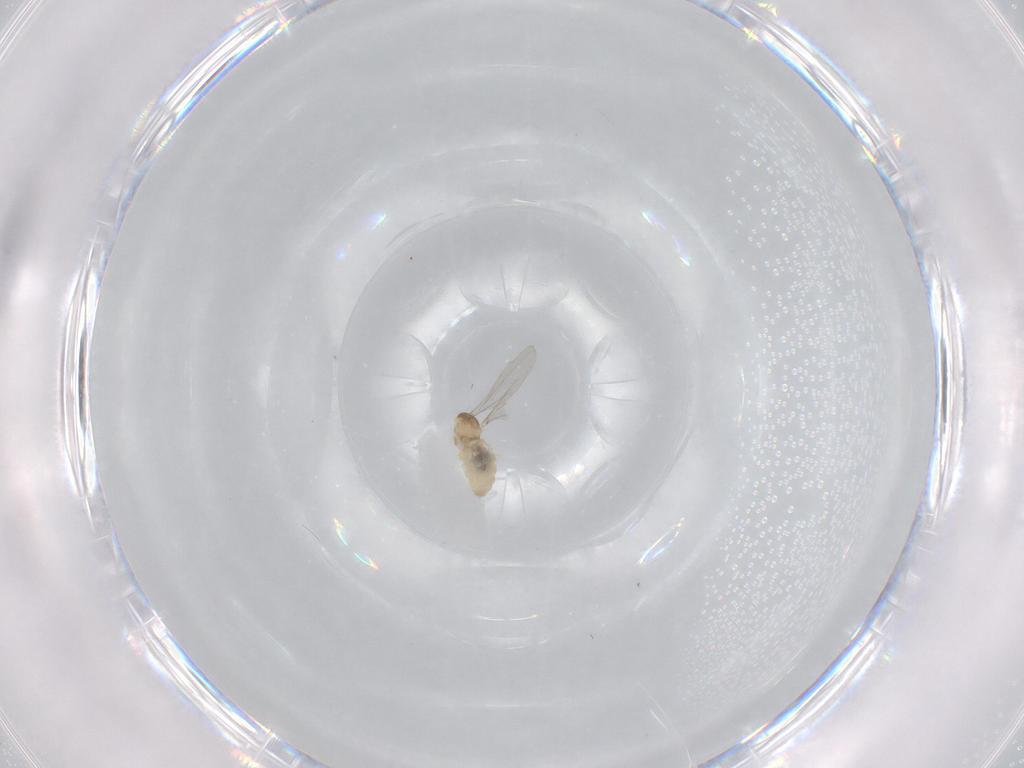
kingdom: Animalia
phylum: Arthropoda
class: Insecta
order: Diptera
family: Cecidomyiidae
